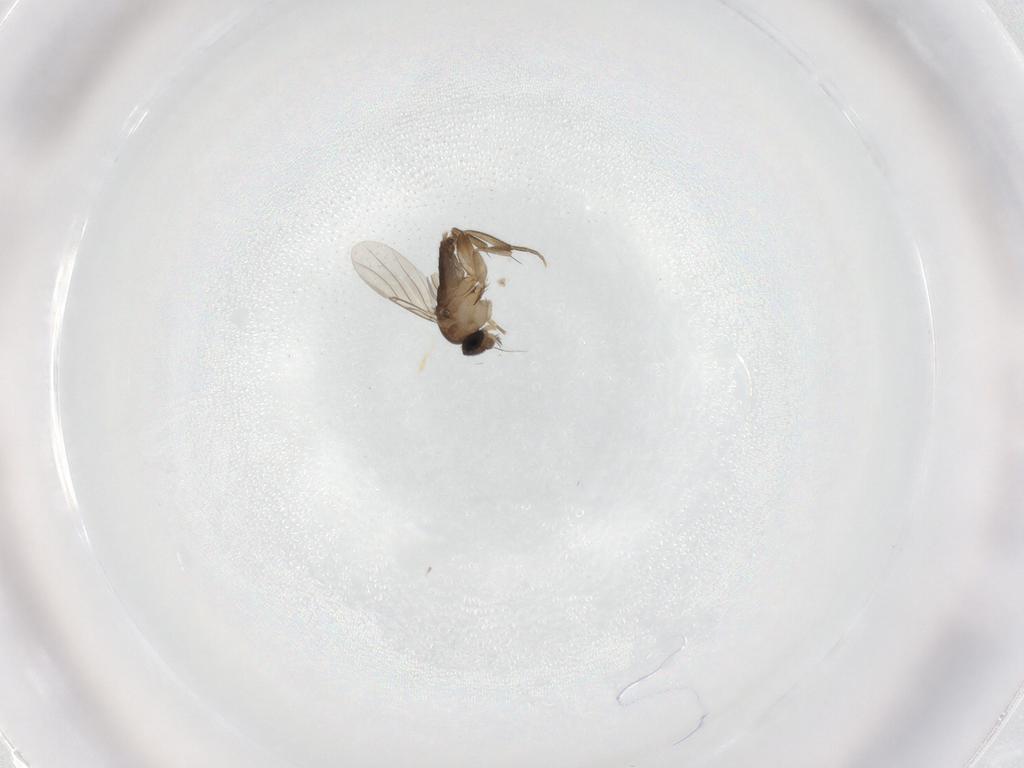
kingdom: Animalia
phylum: Arthropoda
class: Insecta
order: Diptera
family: Phoridae
